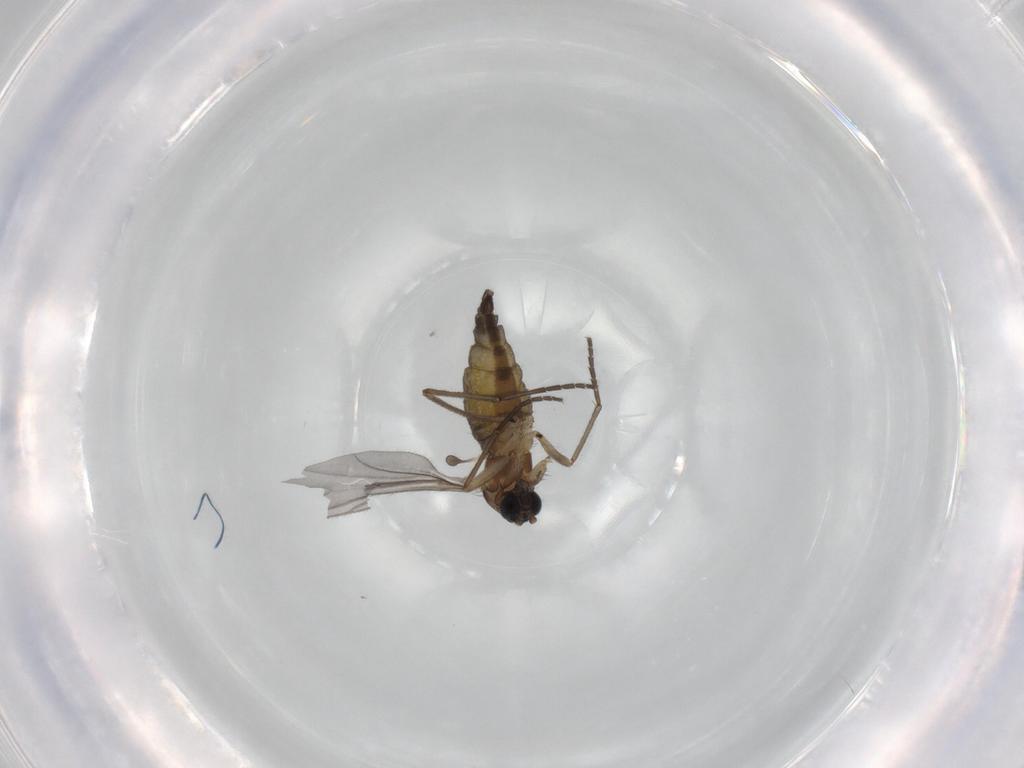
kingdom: Animalia
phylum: Arthropoda
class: Insecta
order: Diptera
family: Sciaridae
